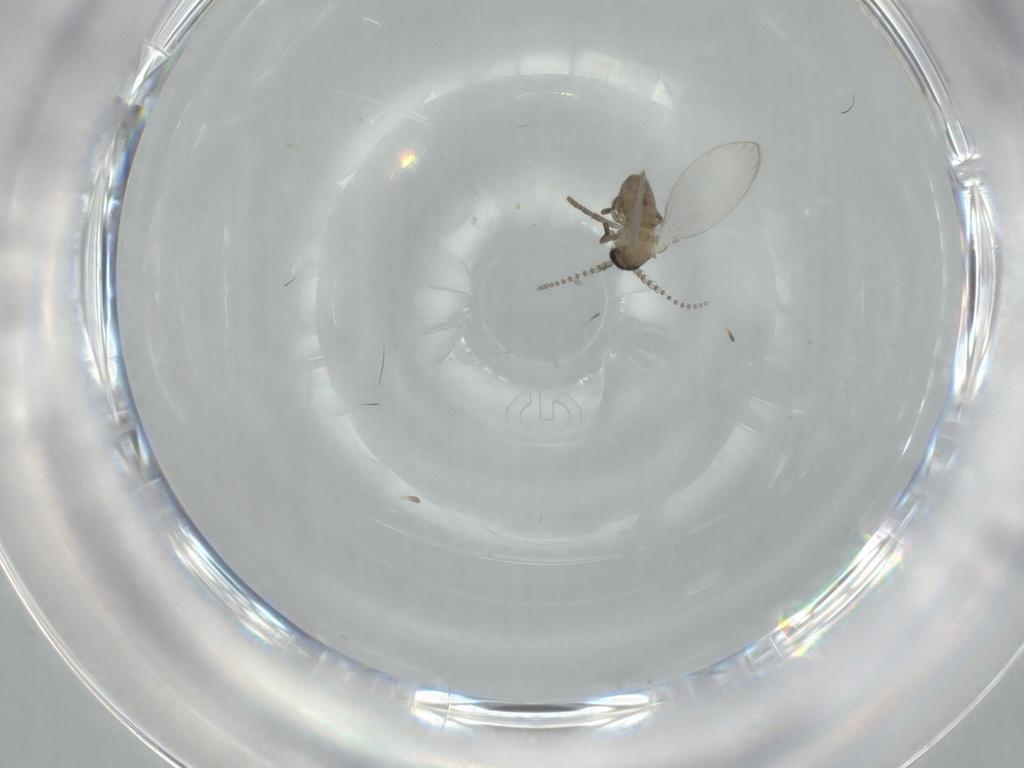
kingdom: Animalia
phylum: Arthropoda
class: Insecta
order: Diptera
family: Psychodidae
